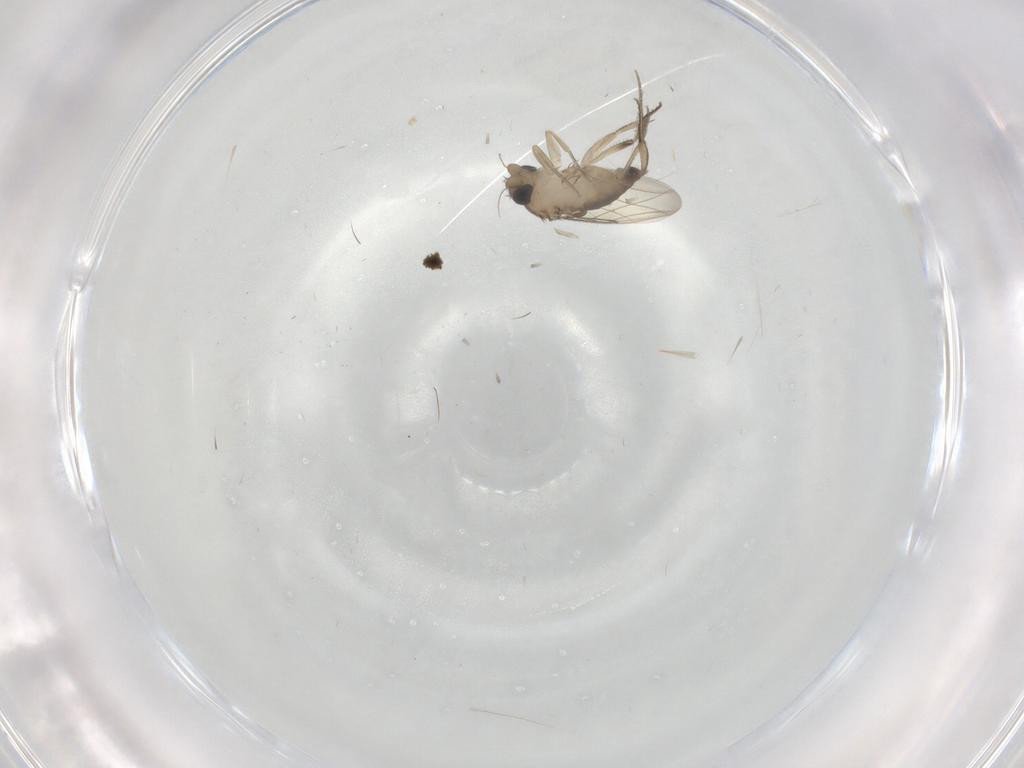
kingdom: Animalia
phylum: Arthropoda
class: Insecta
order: Diptera
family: Phoridae
